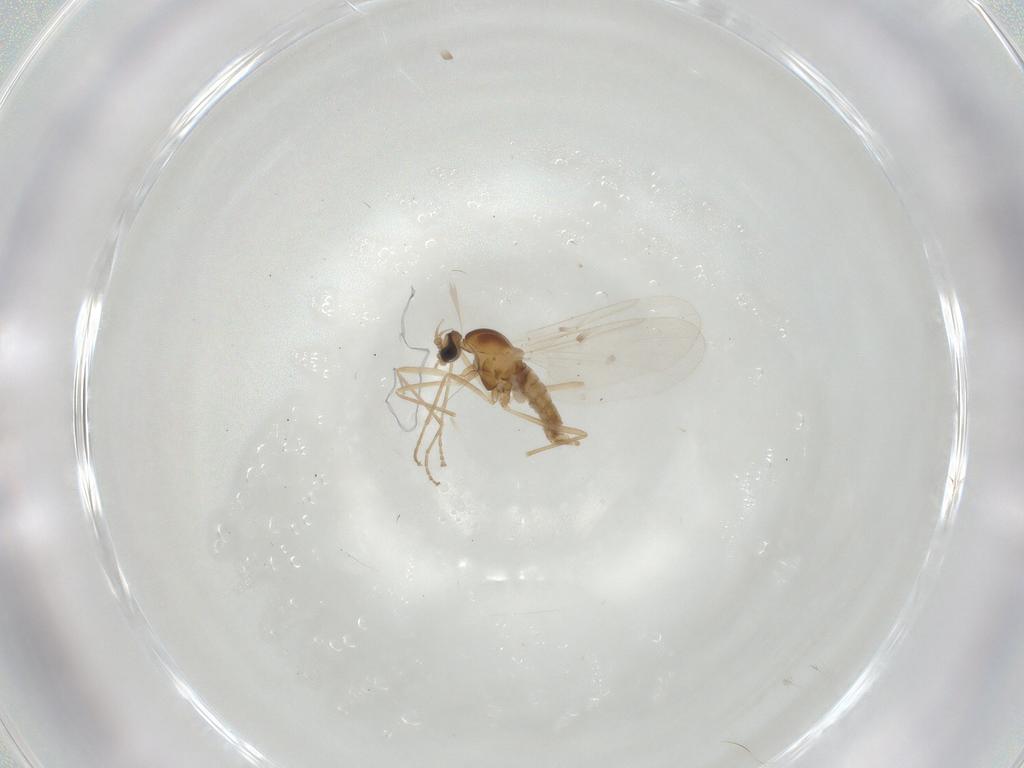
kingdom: Animalia
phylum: Arthropoda
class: Insecta
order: Diptera
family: Cecidomyiidae
